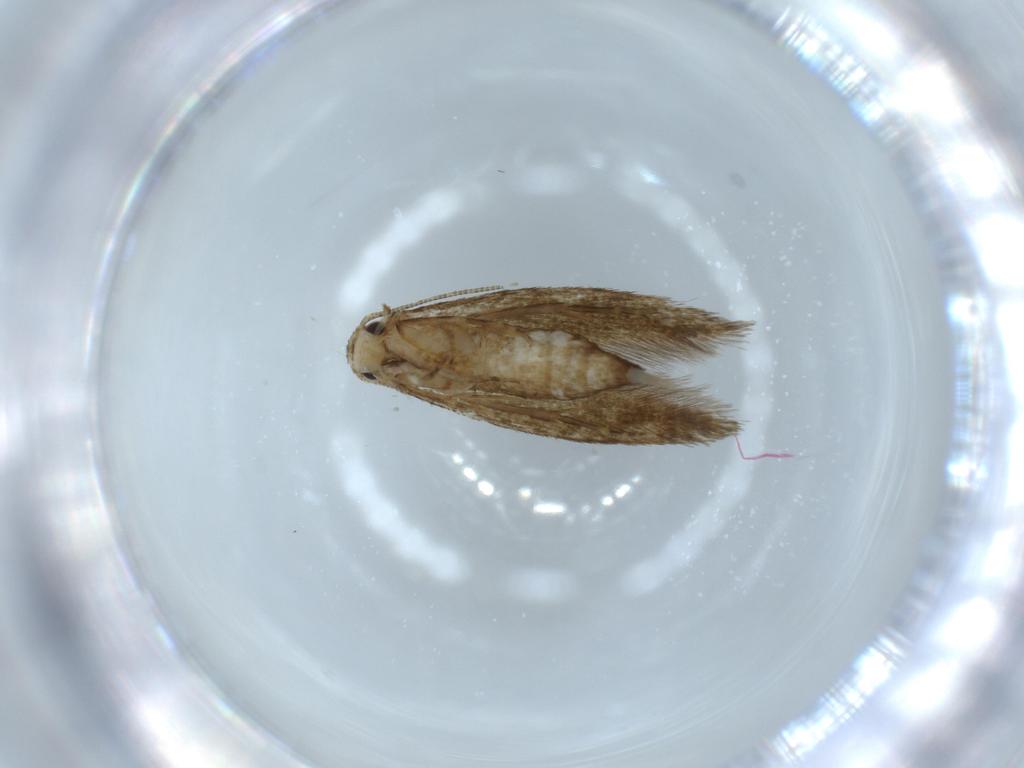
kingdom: Animalia
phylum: Arthropoda
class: Insecta
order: Lepidoptera
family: Tineidae
